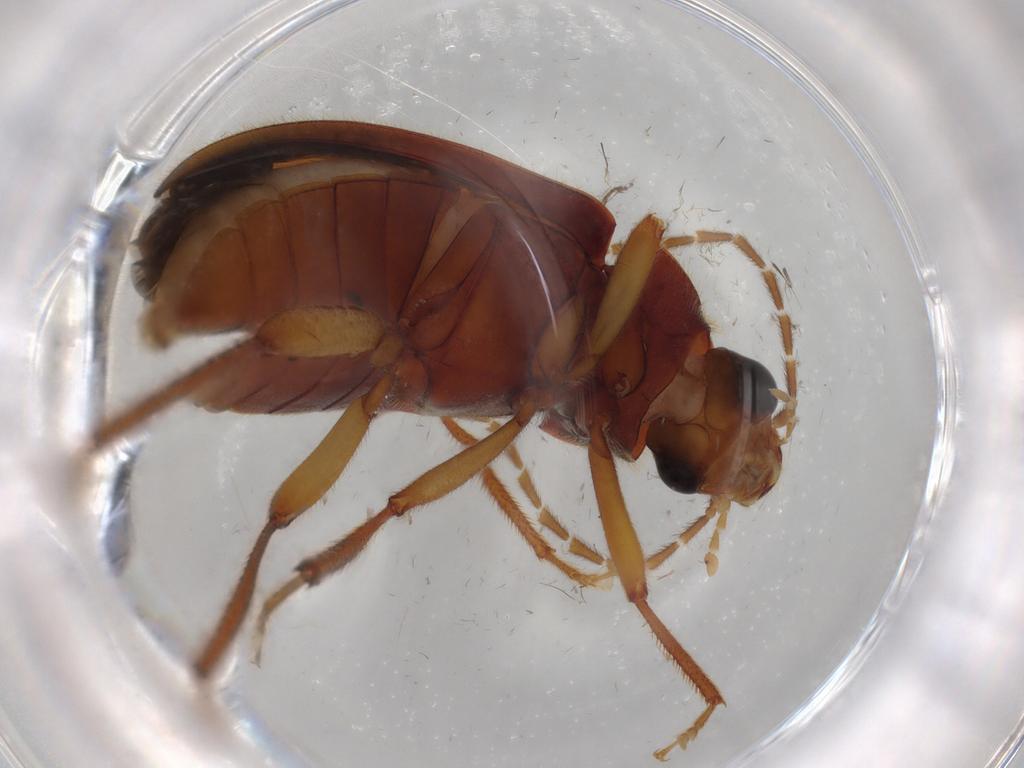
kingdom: Animalia
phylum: Arthropoda
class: Insecta
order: Coleoptera
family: Ptilodactylidae
